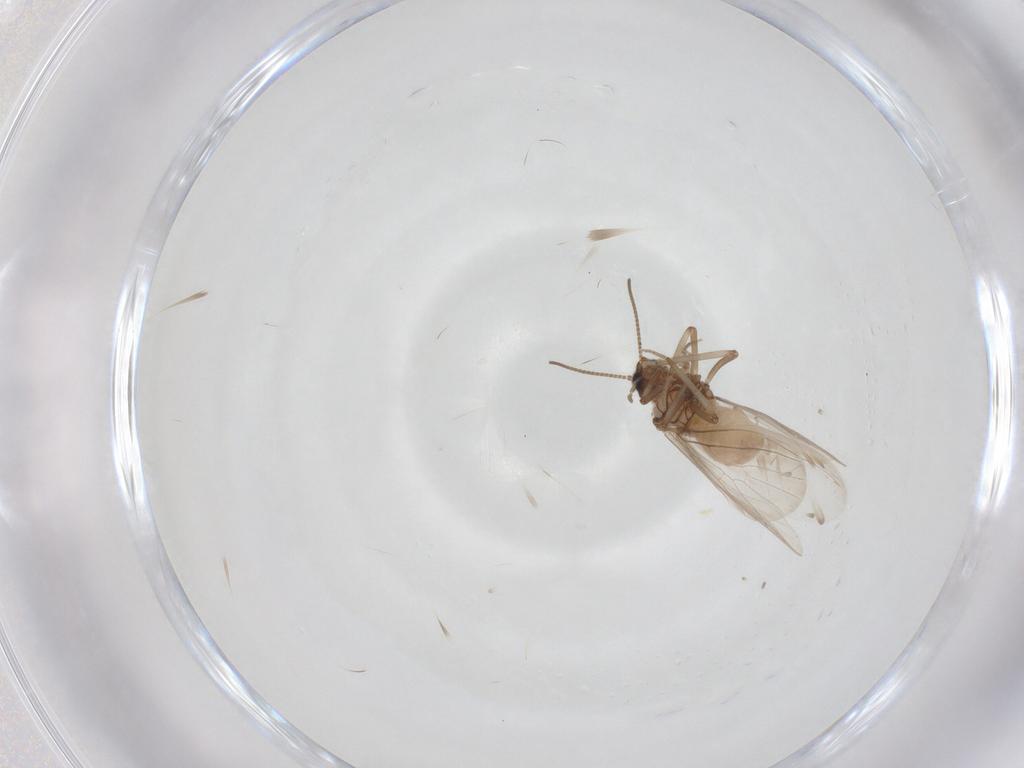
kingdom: Animalia
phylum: Arthropoda
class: Insecta
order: Neuroptera
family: Coniopterygidae
